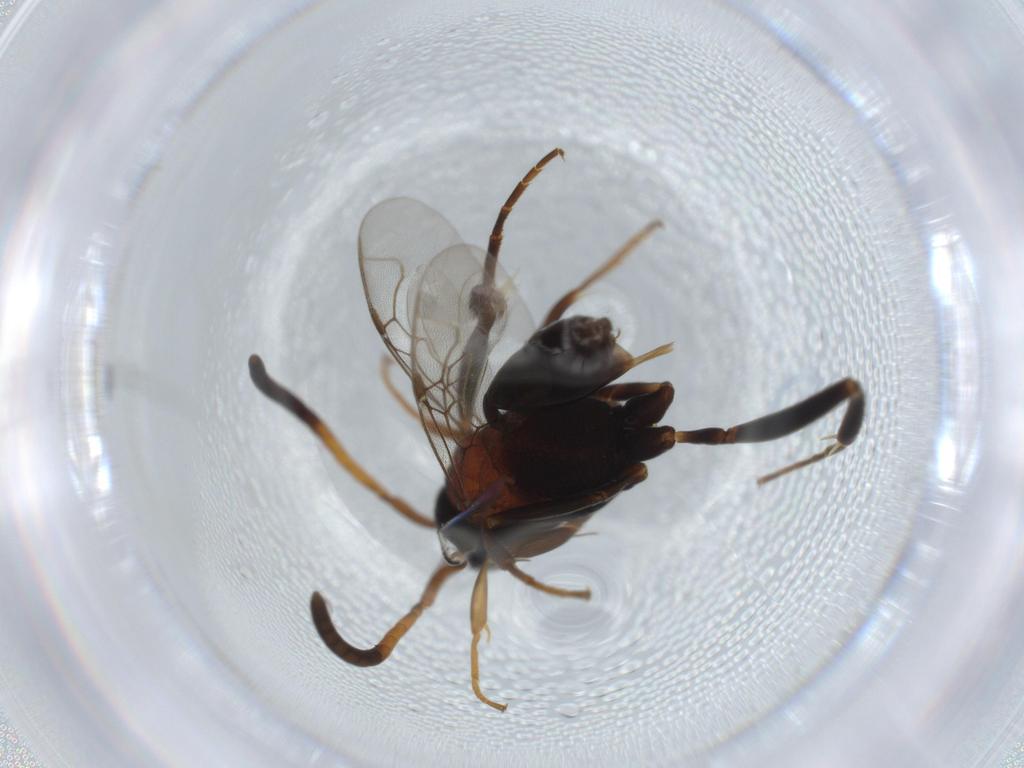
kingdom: Animalia
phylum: Arthropoda
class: Insecta
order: Hymenoptera
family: Evaniidae
